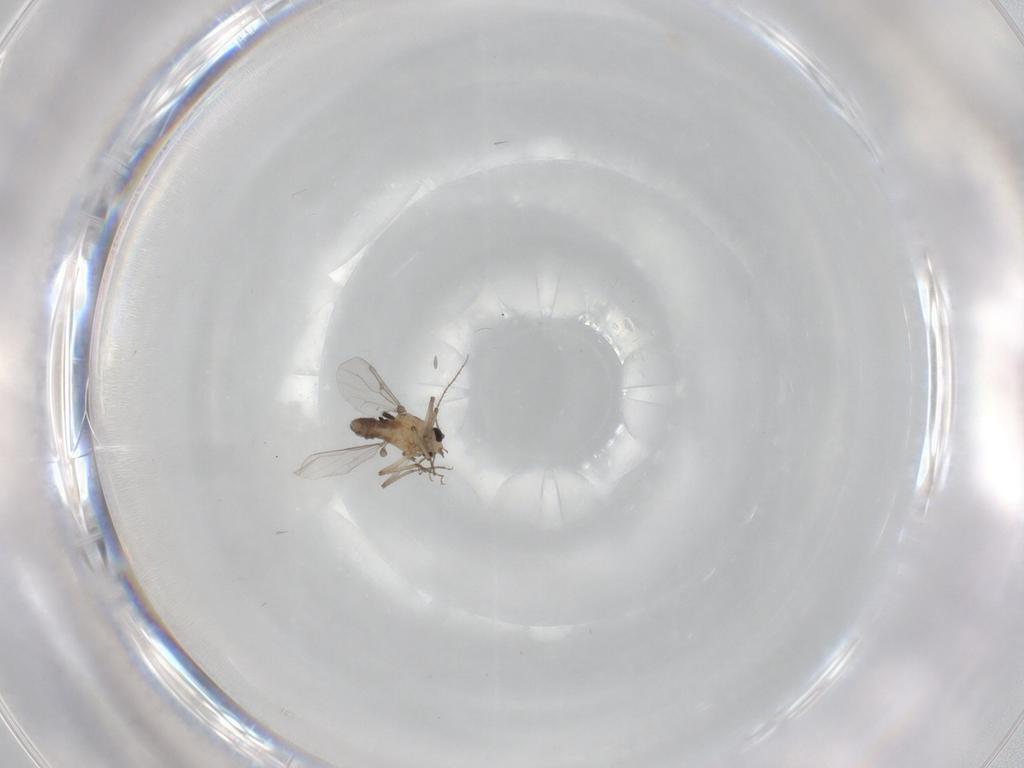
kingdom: Animalia
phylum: Arthropoda
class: Insecta
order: Diptera
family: Ceratopogonidae
